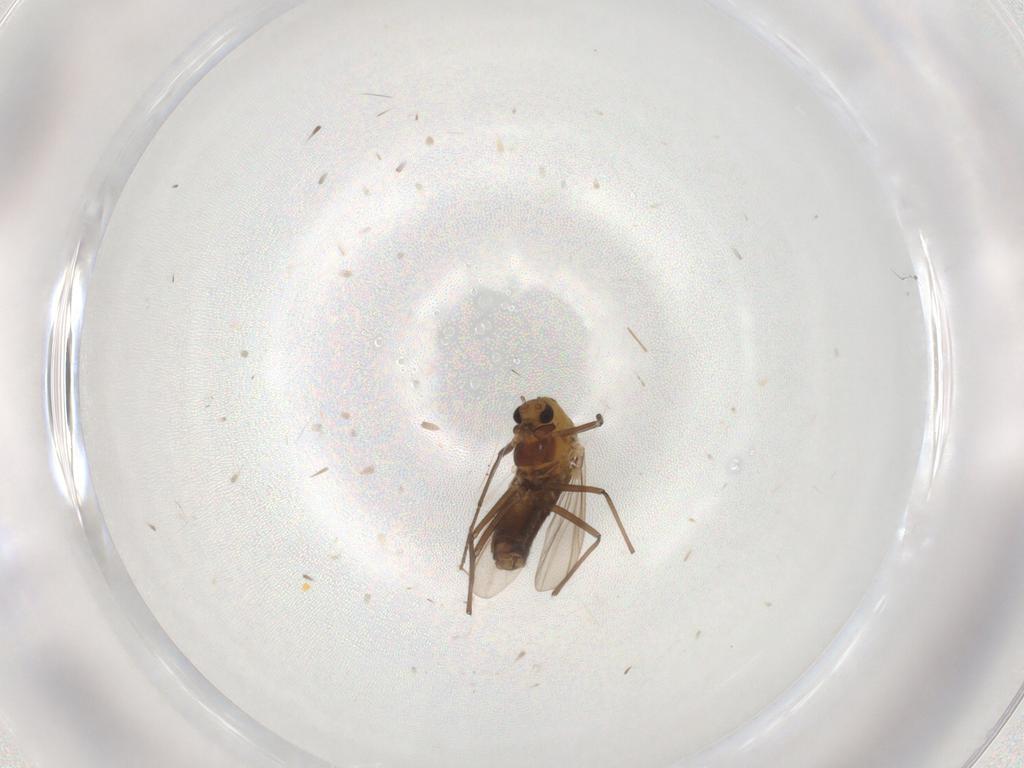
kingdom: Animalia
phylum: Arthropoda
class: Insecta
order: Diptera
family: Chironomidae
